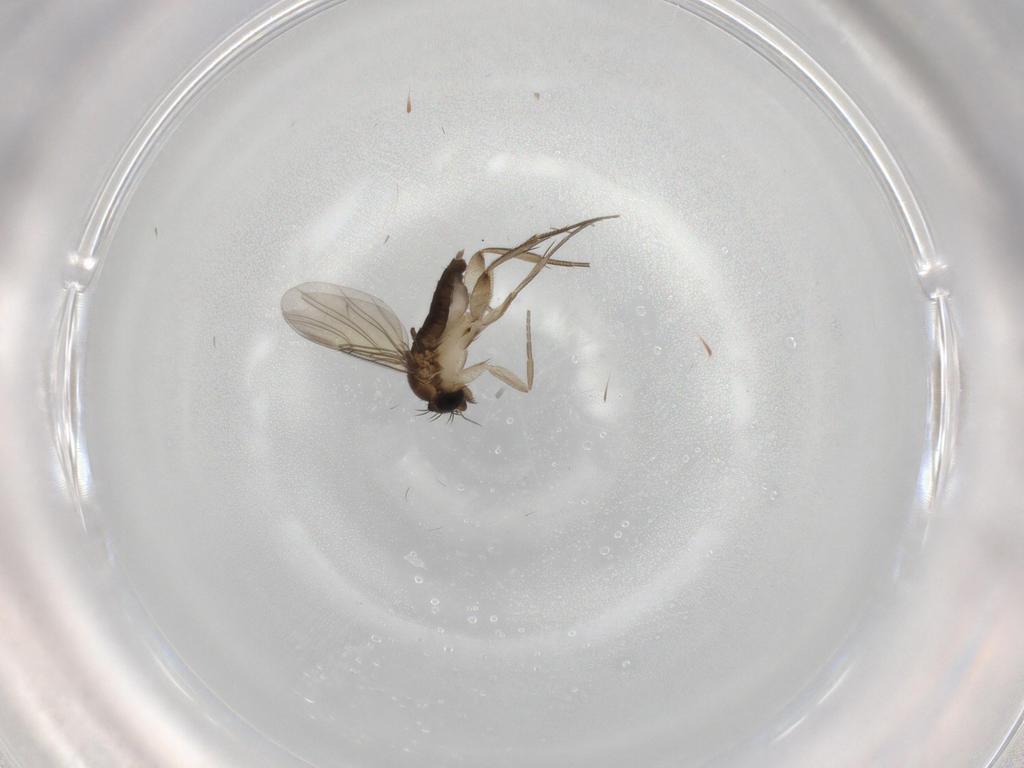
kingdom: Animalia
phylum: Arthropoda
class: Insecta
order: Diptera
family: Phoridae
